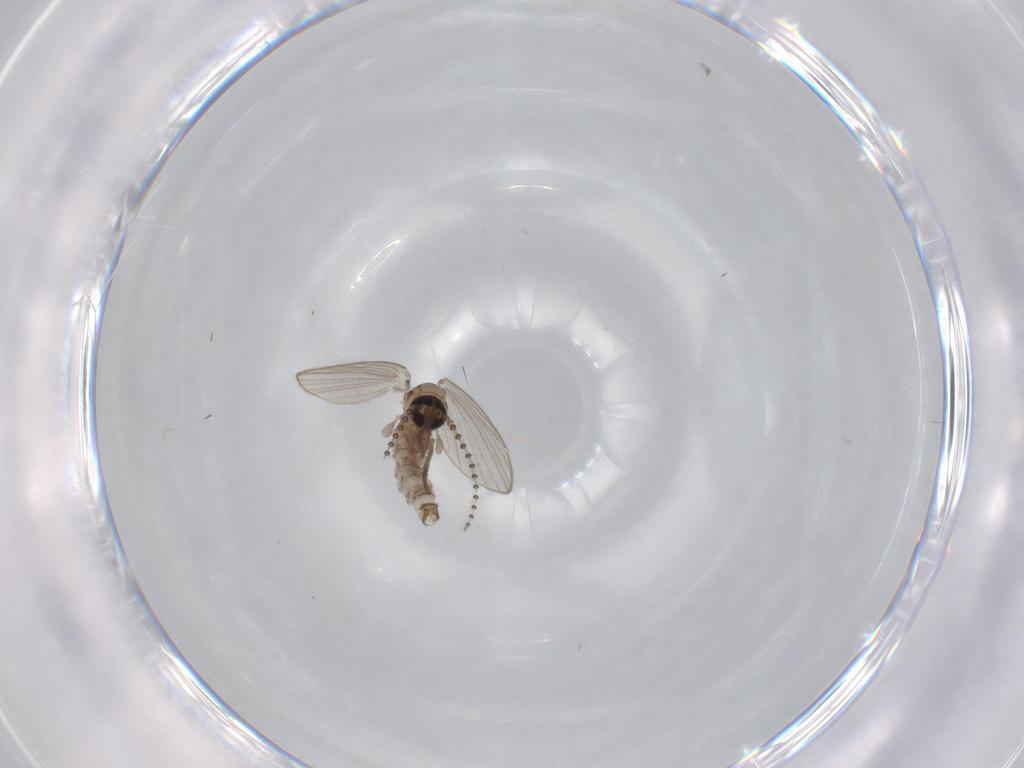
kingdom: Animalia
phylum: Arthropoda
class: Insecta
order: Diptera
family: Psychodidae
